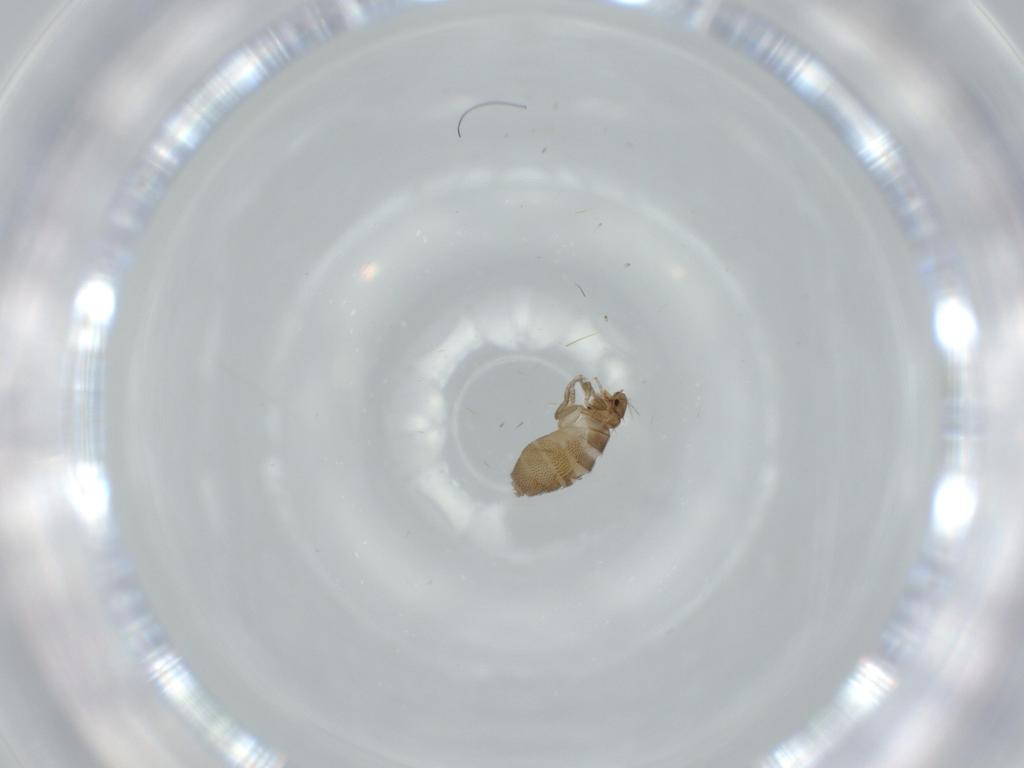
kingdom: Animalia
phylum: Arthropoda
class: Insecta
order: Diptera
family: Phoridae
